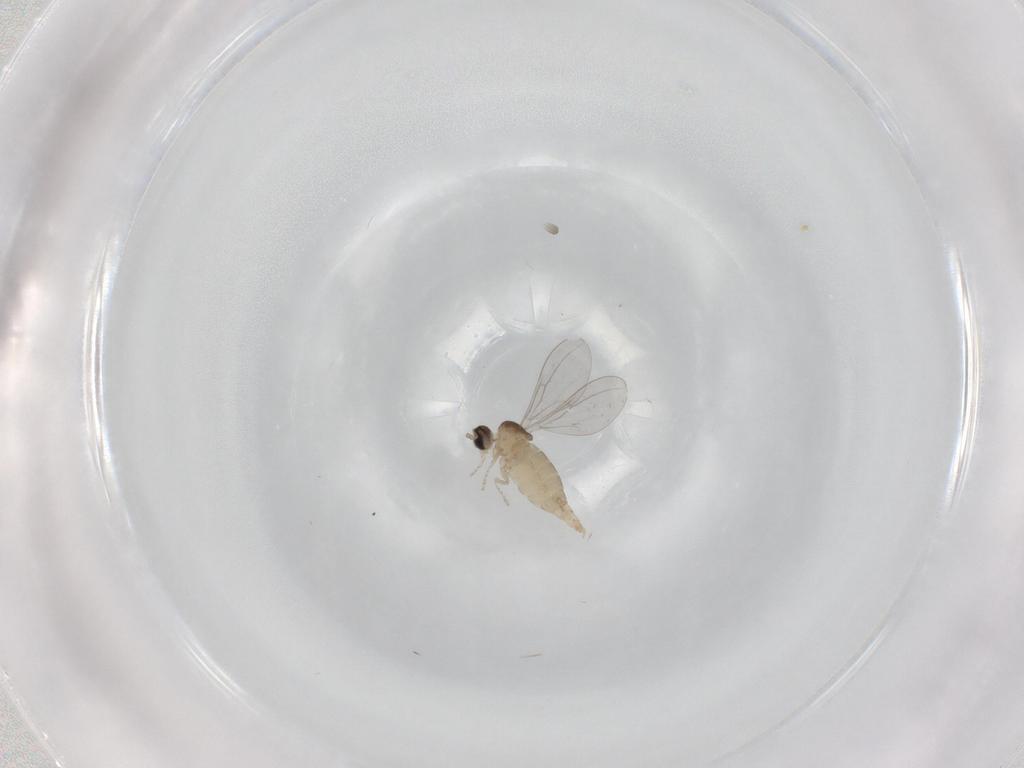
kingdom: Animalia
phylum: Arthropoda
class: Insecta
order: Diptera
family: Cecidomyiidae
